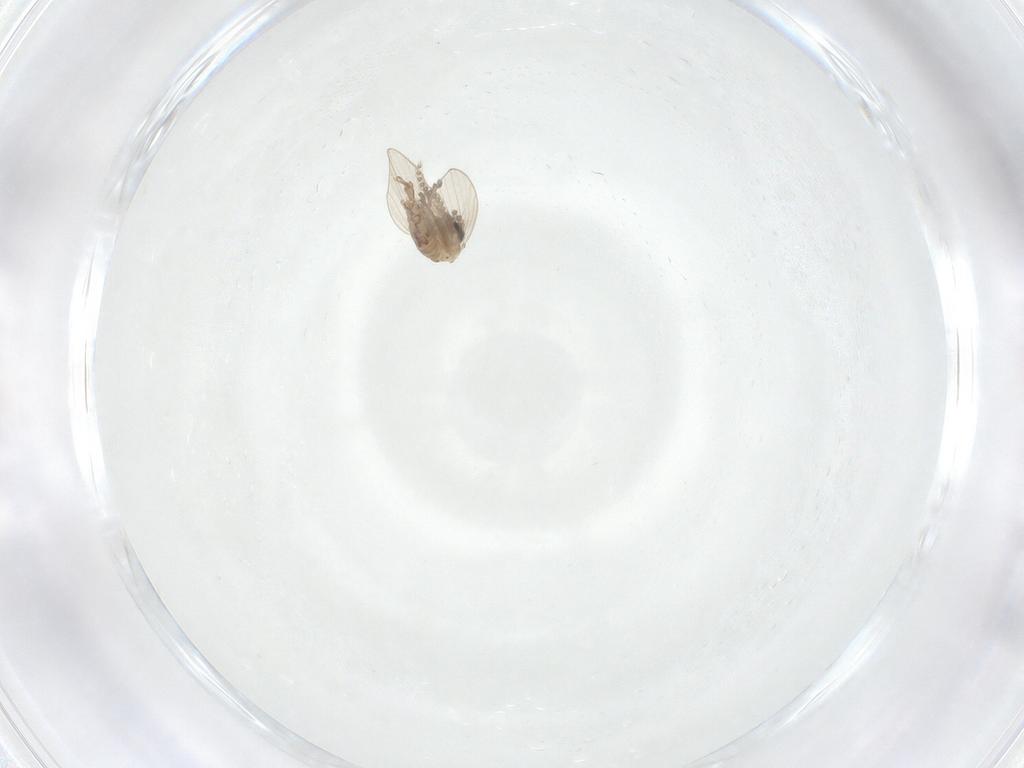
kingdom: Animalia
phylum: Arthropoda
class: Insecta
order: Diptera
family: Psychodidae
